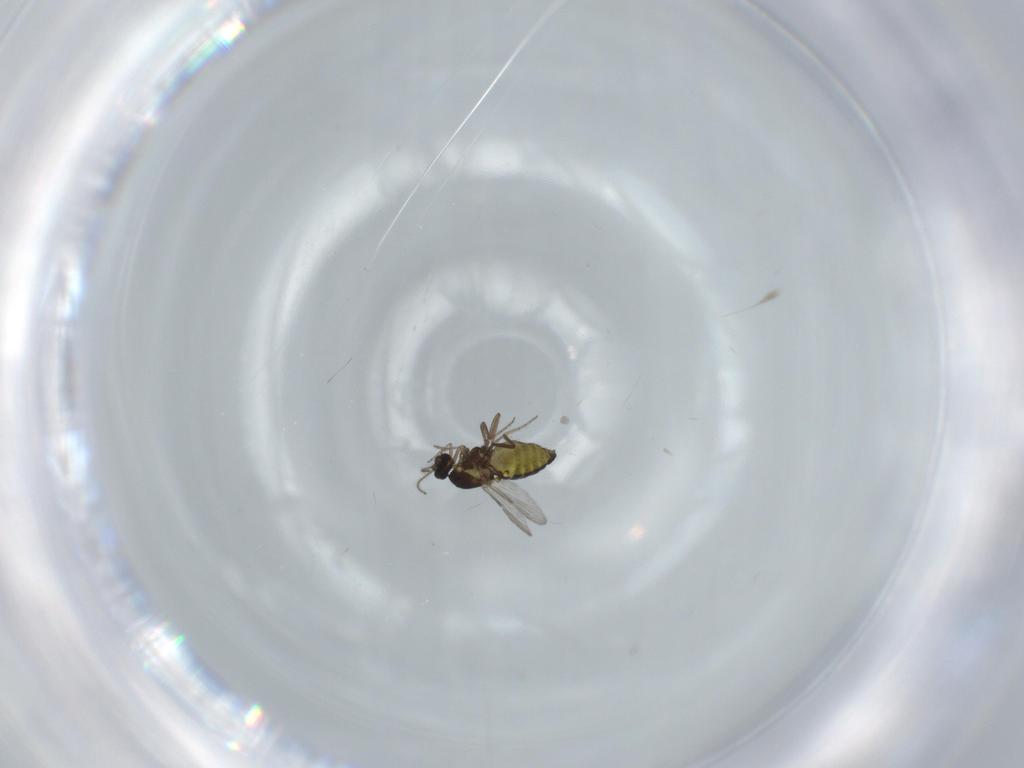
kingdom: Animalia
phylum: Arthropoda
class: Insecta
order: Diptera
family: Ceratopogonidae
